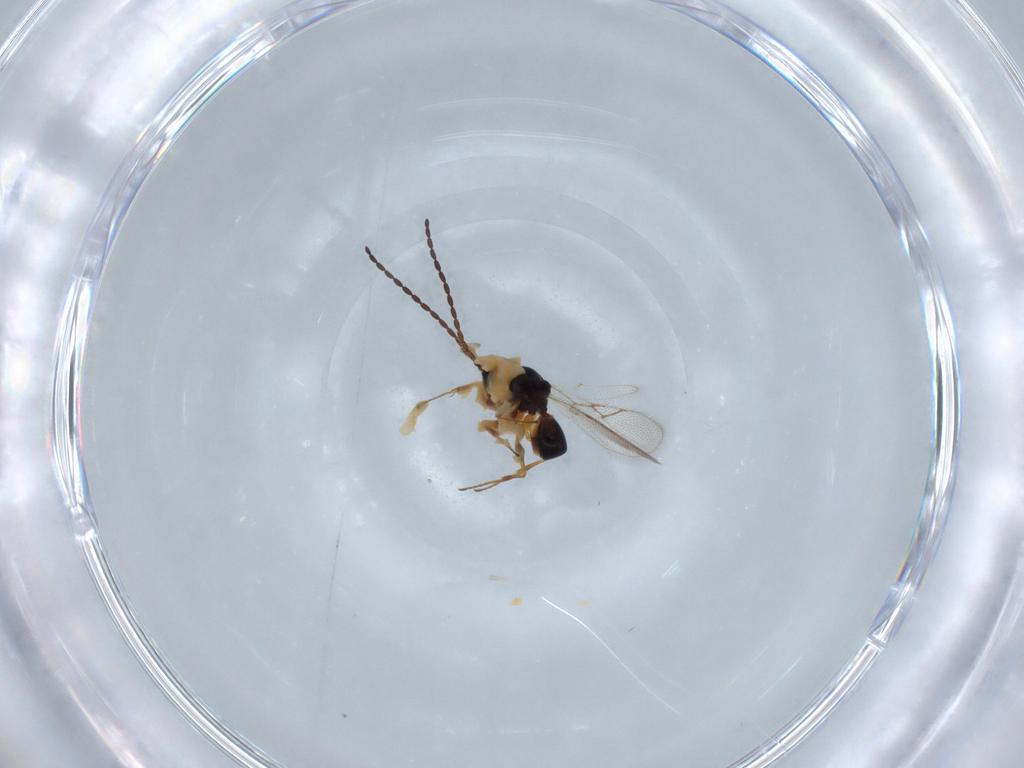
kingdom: Animalia
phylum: Arthropoda
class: Insecta
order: Hymenoptera
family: Figitidae
